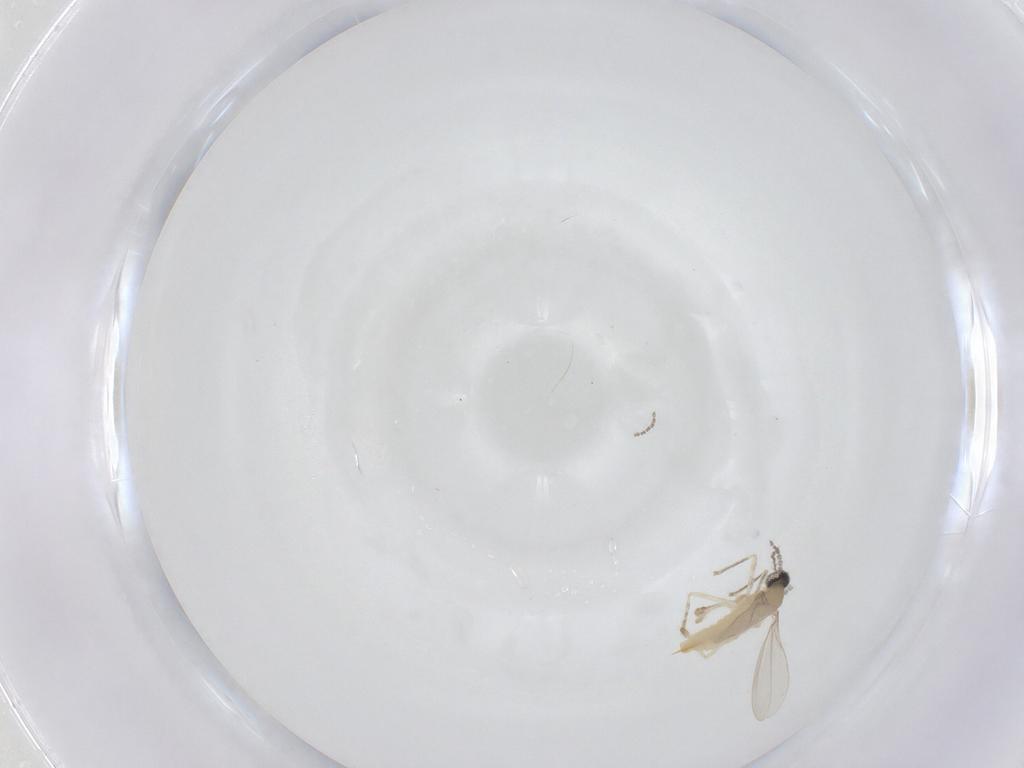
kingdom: Animalia
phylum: Arthropoda
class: Insecta
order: Diptera
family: Cecidomyiidae
